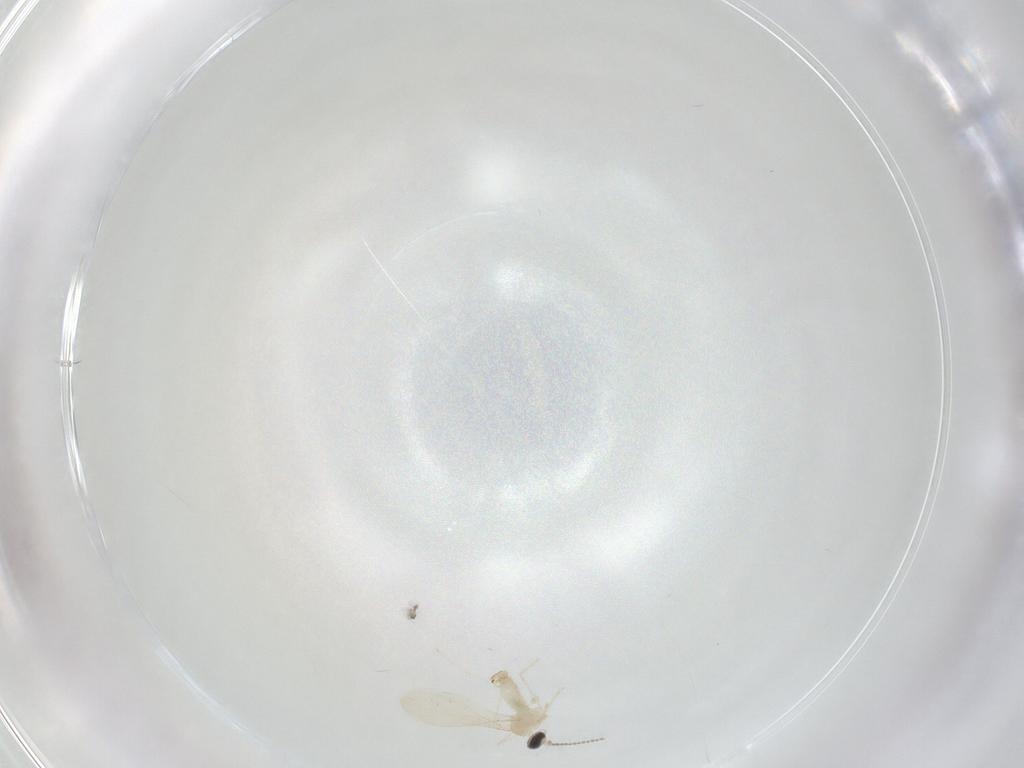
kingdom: Animalia
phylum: Arthropoda
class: Insecta
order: Diptera
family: Cecidomyiidae
